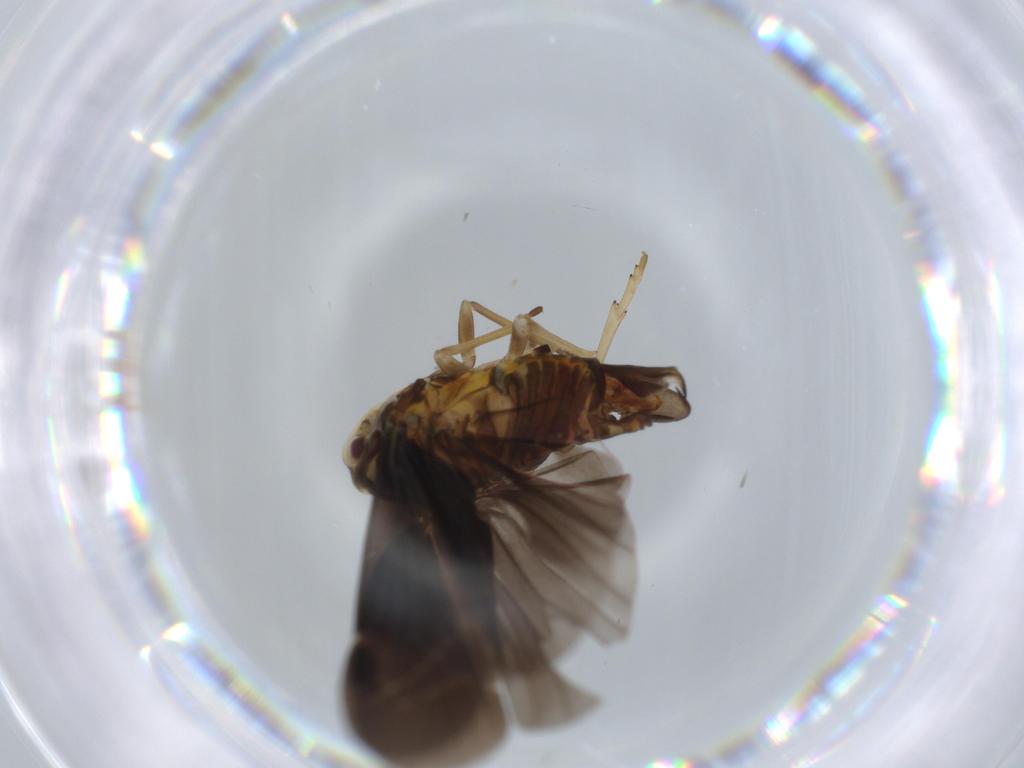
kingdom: Animalia
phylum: Arthropoda
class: Insecta
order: Hemiptera
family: Derbidae
